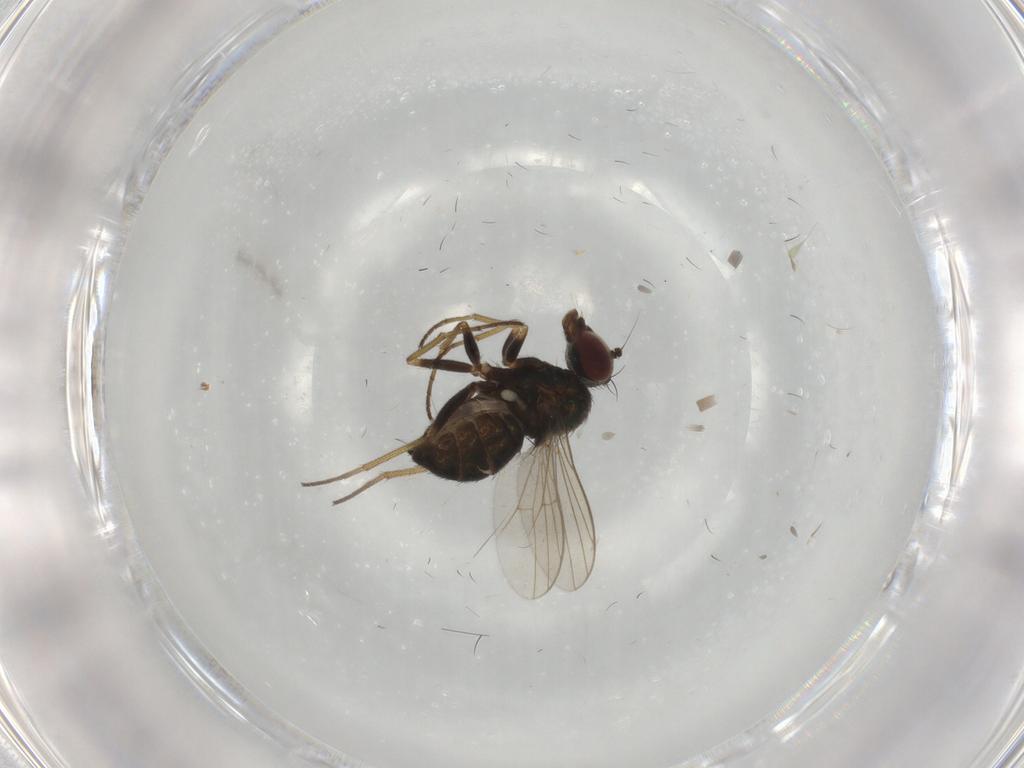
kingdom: Animalia
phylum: Arthropoda
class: Insecta
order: Diptera
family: Dolichopodidae
